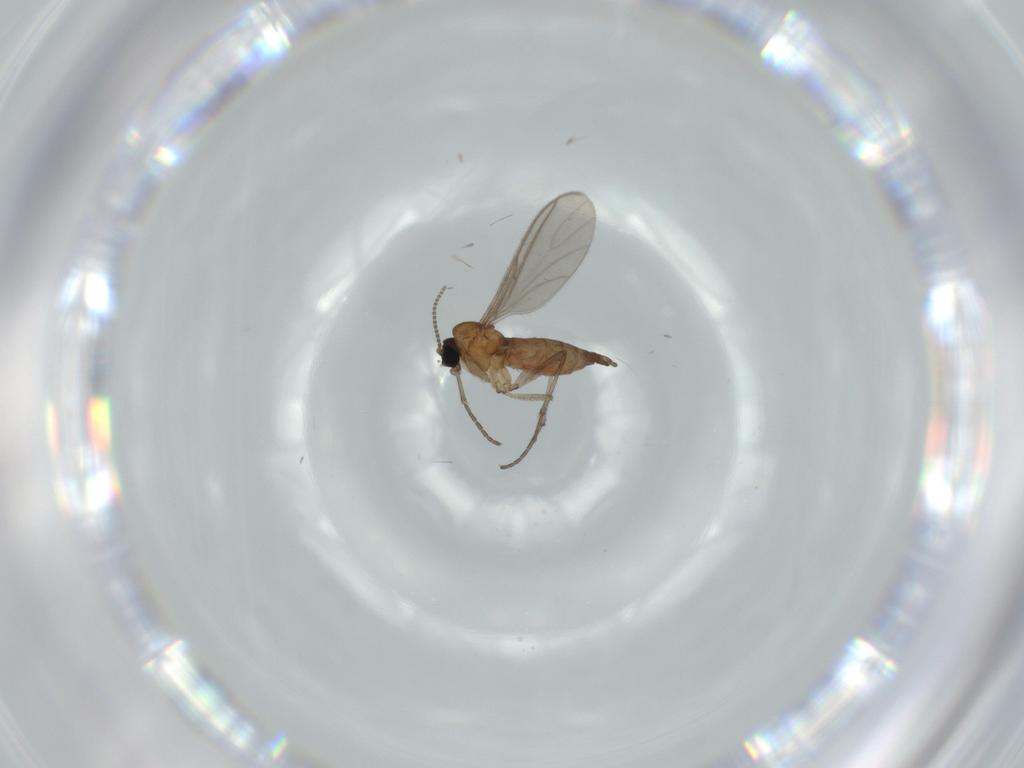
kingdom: Animalia
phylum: Arthropoda
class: Insecta
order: Diptera
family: Sciaridae
